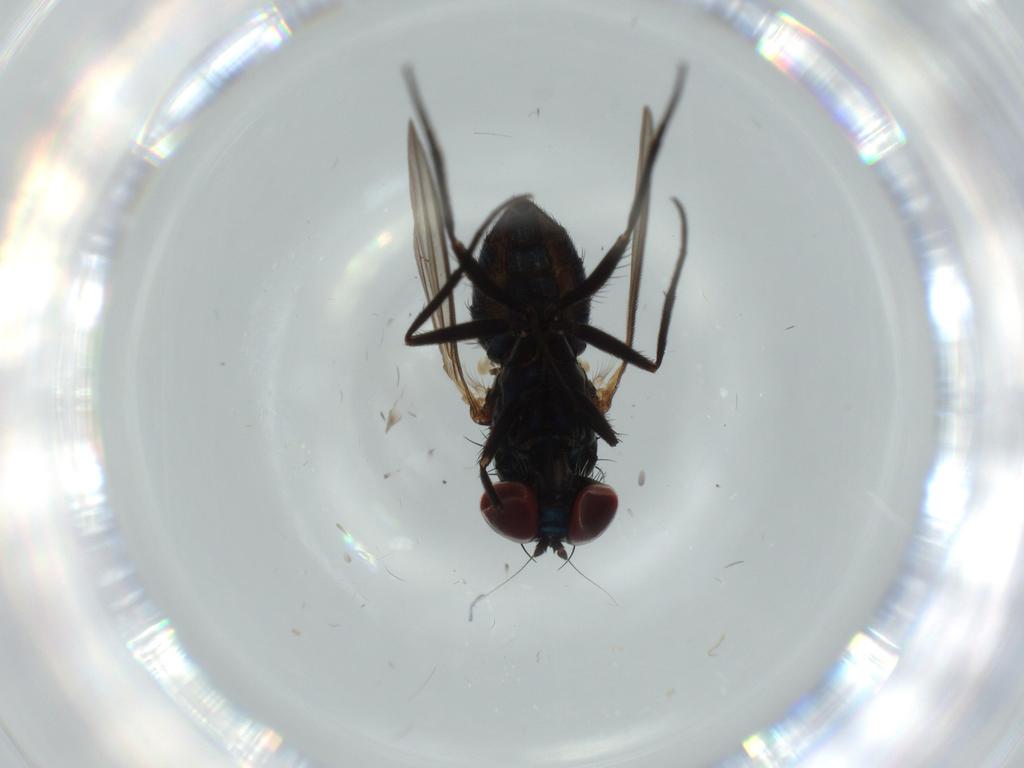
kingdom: Animalia
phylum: Arthropoda
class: Insecta
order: Diptera
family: Dolichopodidae
